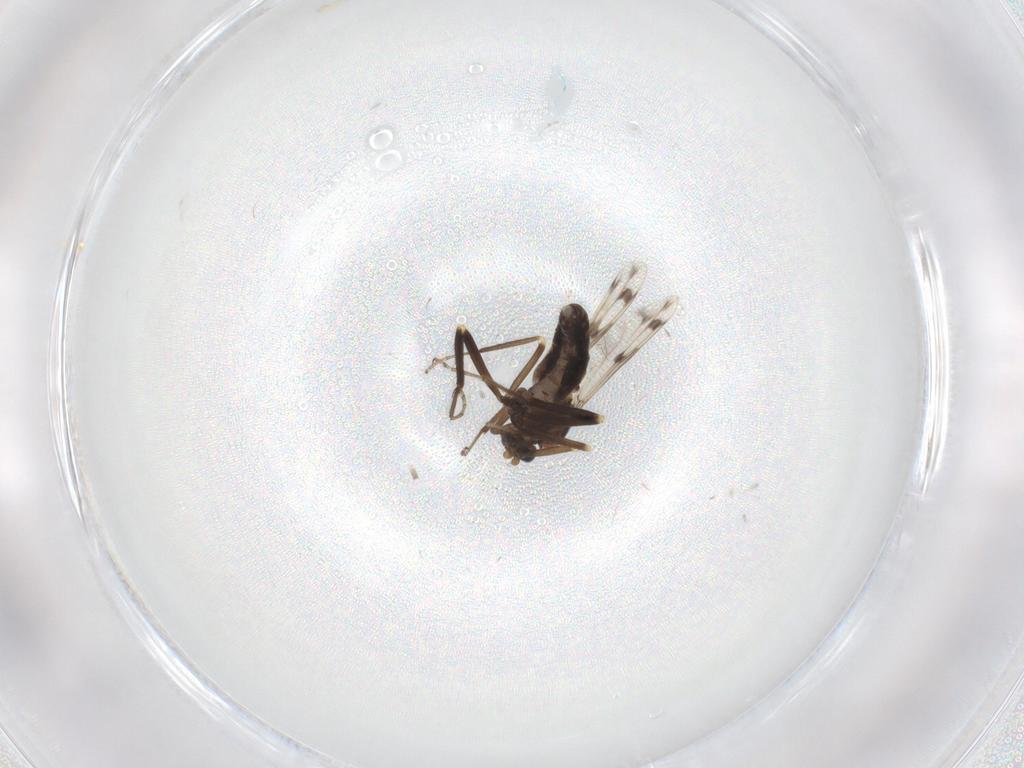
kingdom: Animalia
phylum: Arthropoda
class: Insecta
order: Diptera
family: Ceratopogonidae
